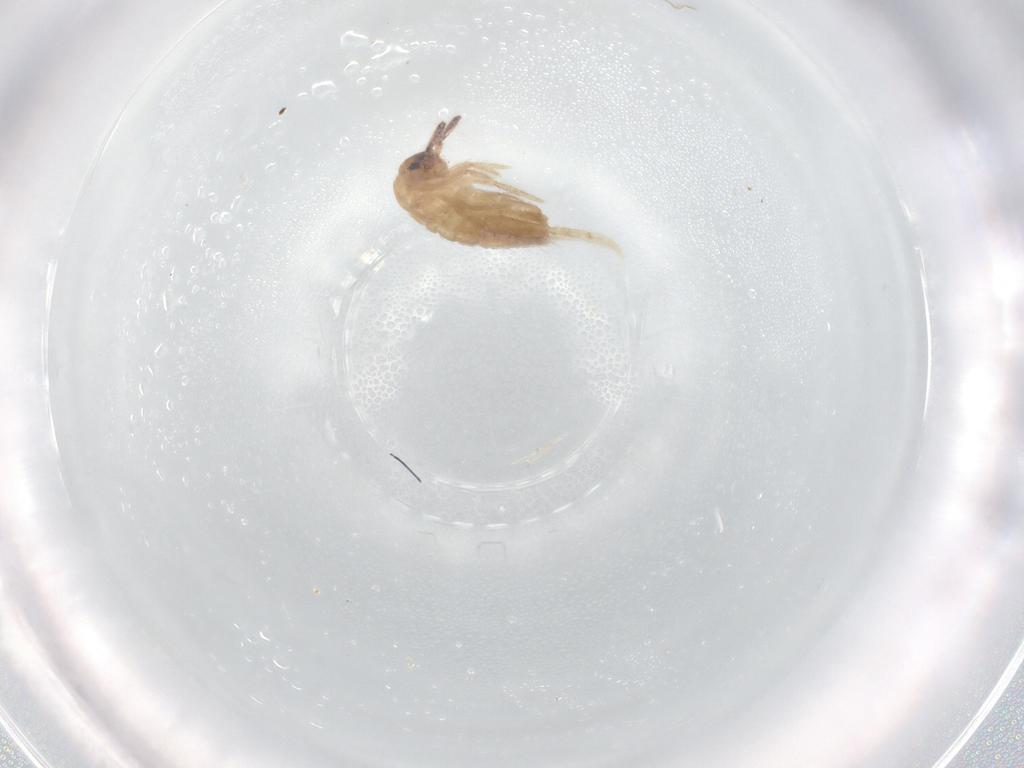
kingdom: Animalia
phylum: Arthropoda
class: Collembola
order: Entomobryomorpha
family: Entomobryidae
